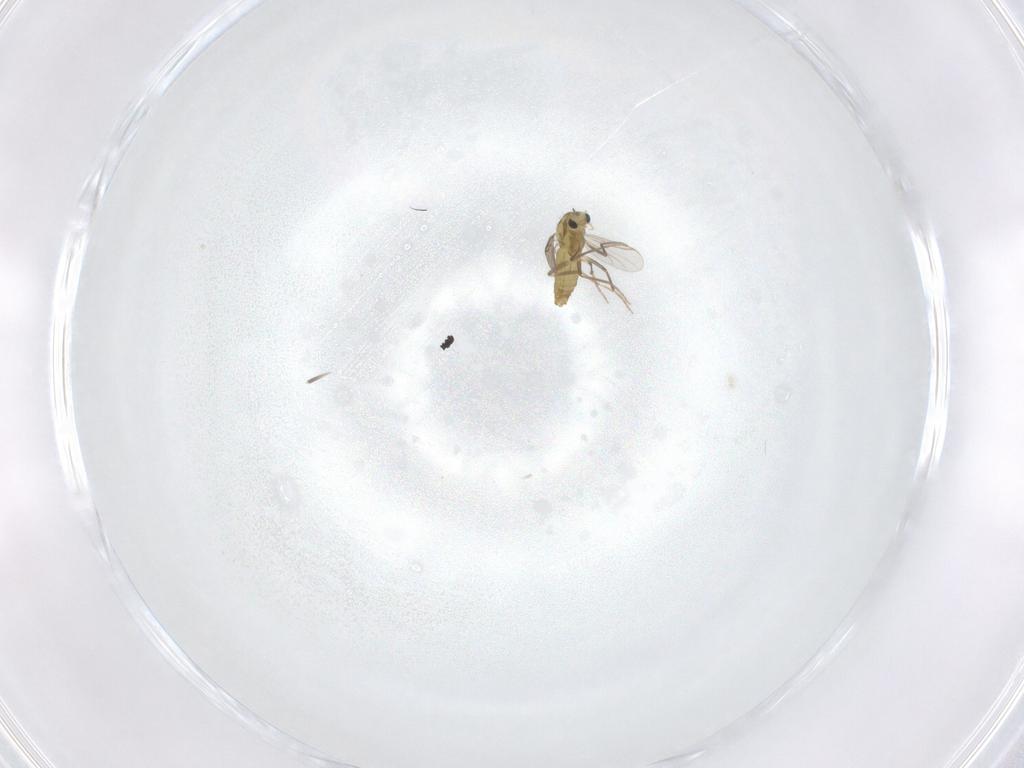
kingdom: Animalia
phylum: Arthropoda
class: Insecta
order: Diptera
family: Chironomidae
